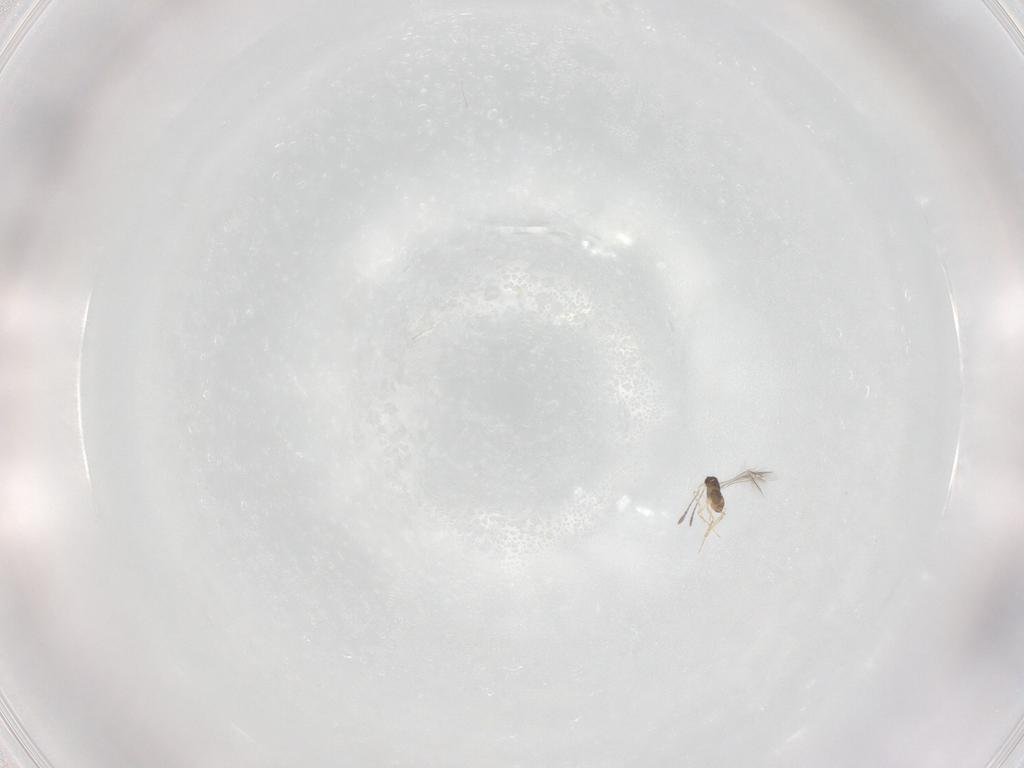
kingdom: Animalia
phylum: Arthropoda
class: Insecta
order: Hymenoptera
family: Mymaridae
